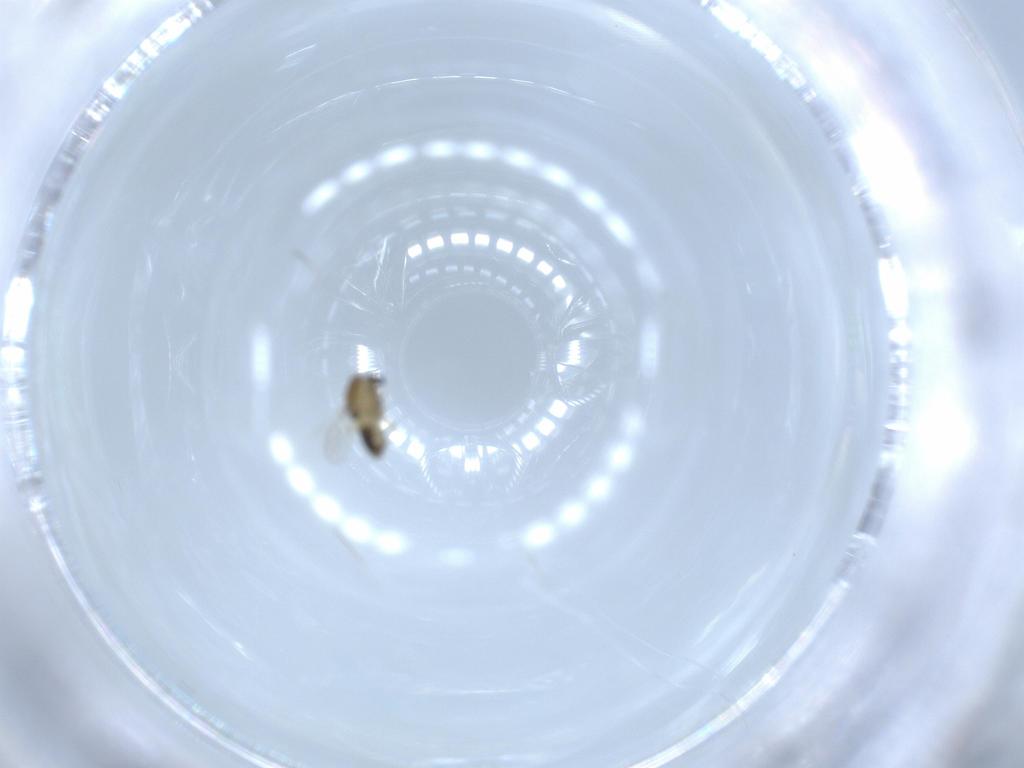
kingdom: Animalia
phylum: Arthropoda
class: Insecta
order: Diptera
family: Chironomidae
